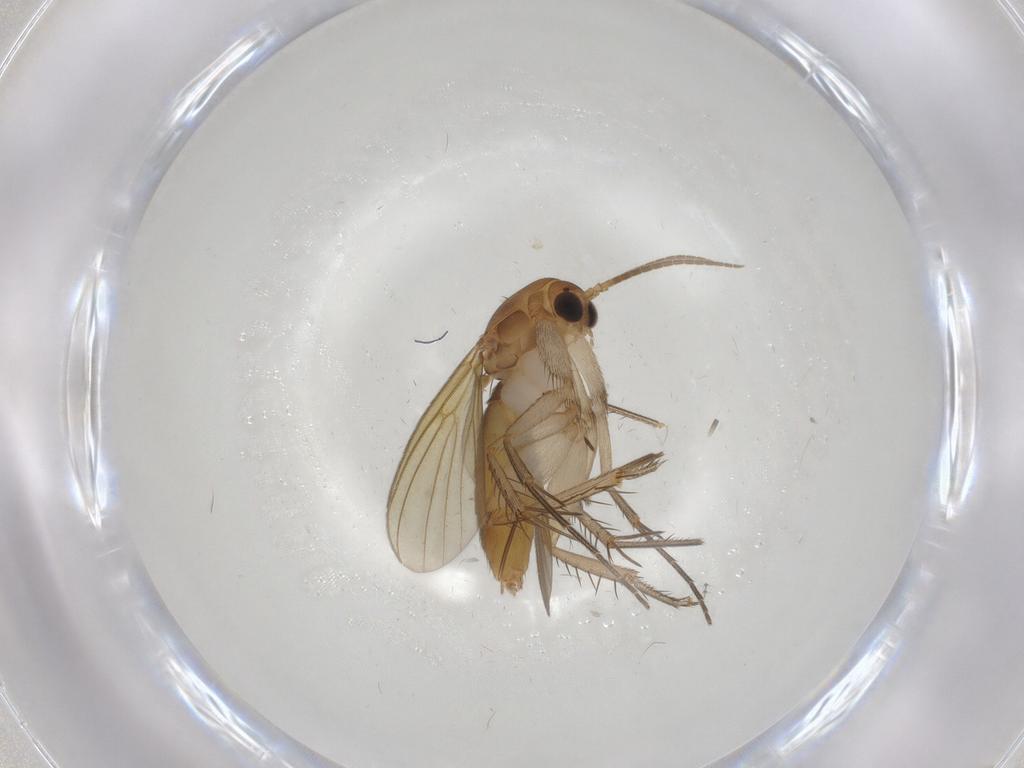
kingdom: Animalia
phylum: Arthropoda
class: Insecta
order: Diptera
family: Mycetophilidae
